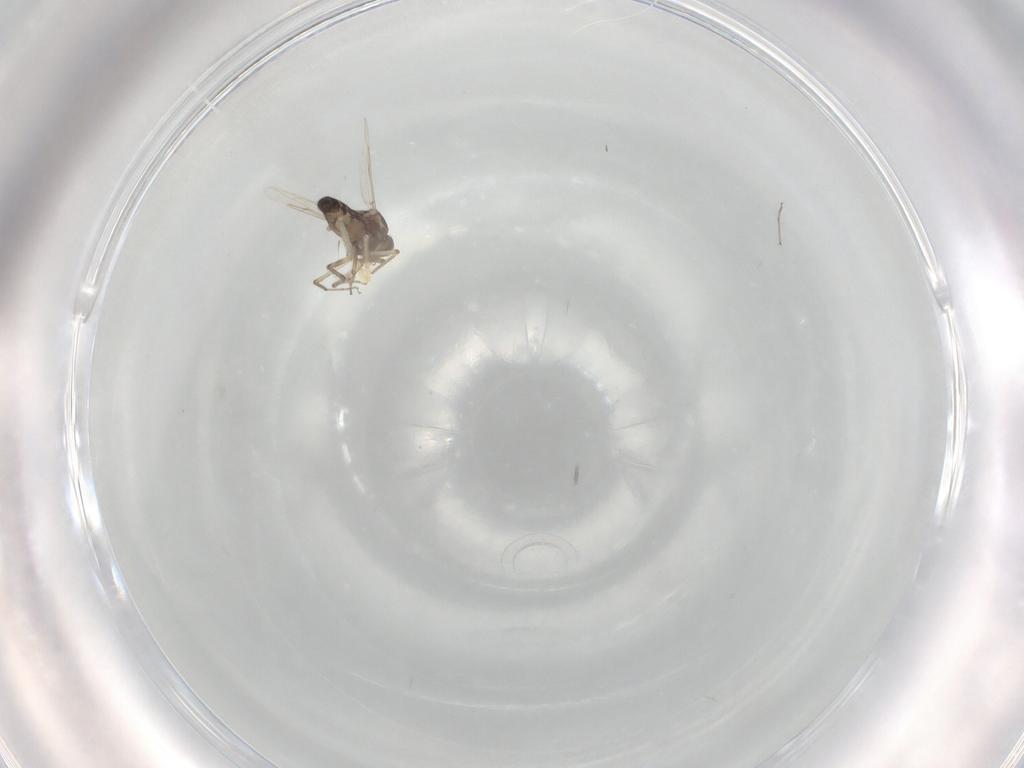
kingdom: Animalia
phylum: Arthropoda
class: Insecta
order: Diptera
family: Ceratopogonidae
